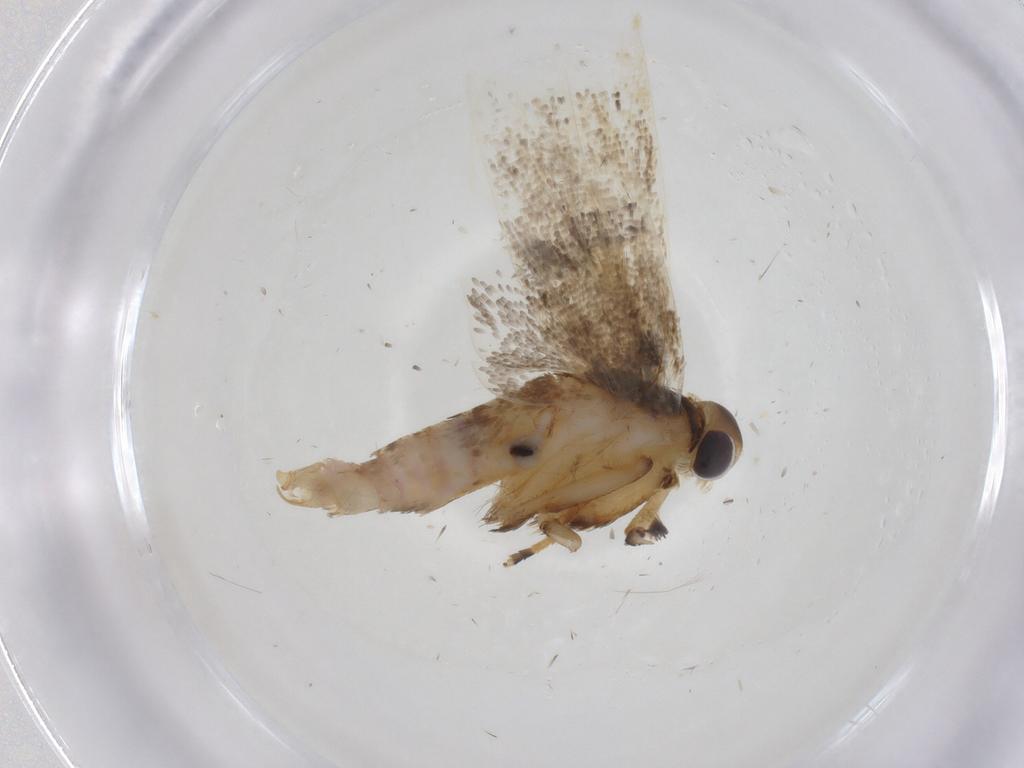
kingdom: Animalia
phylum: Arthropoda
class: Insecta
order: Lepidoptera
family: Lecithoceridae
